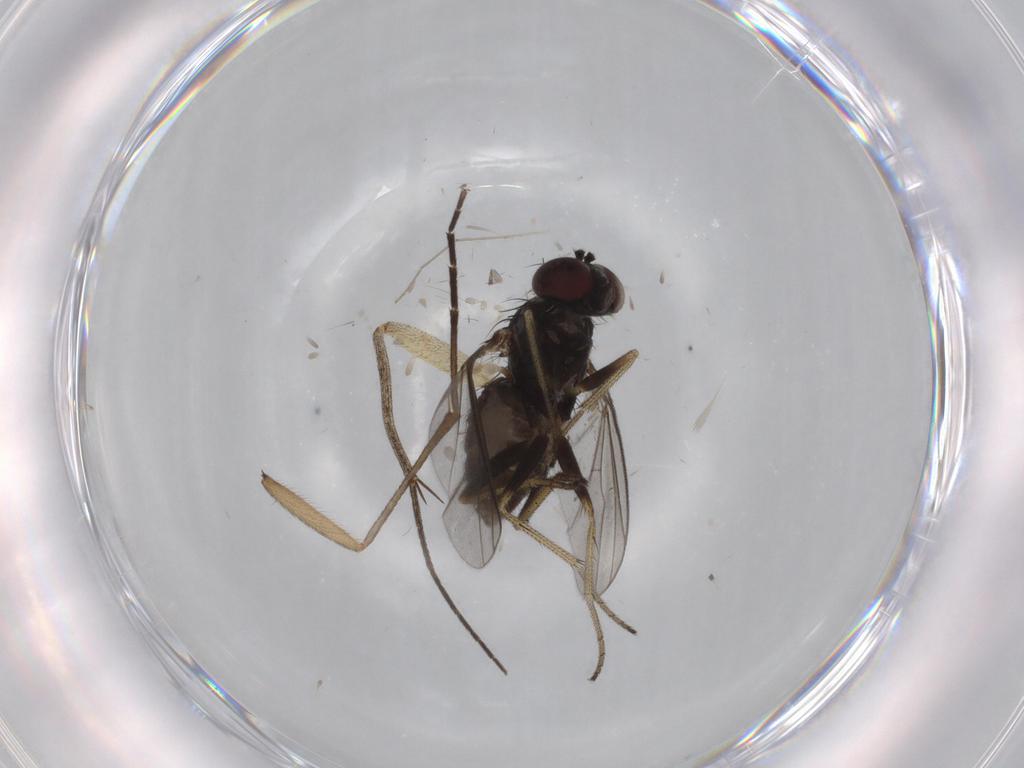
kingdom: Animalia
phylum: Arthropoda
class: Insecta
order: Diptera
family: Mycetophilidae
